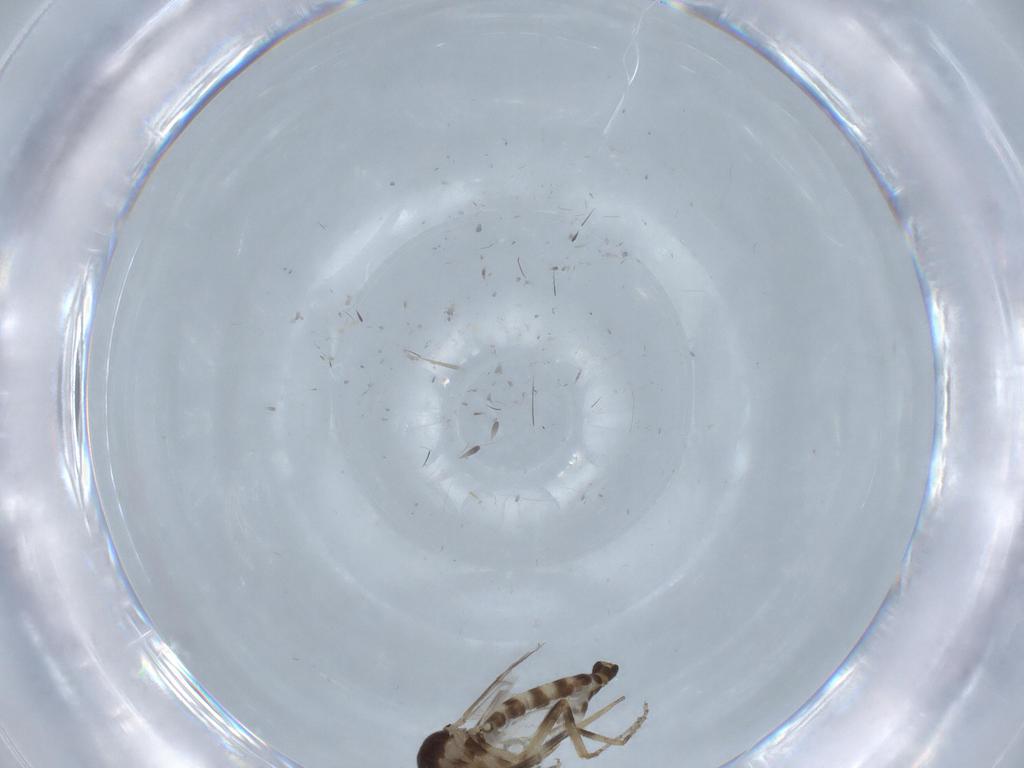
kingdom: Animalia
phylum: Arthropoda
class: Insecta
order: Diptera
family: Ceratopogonidae
